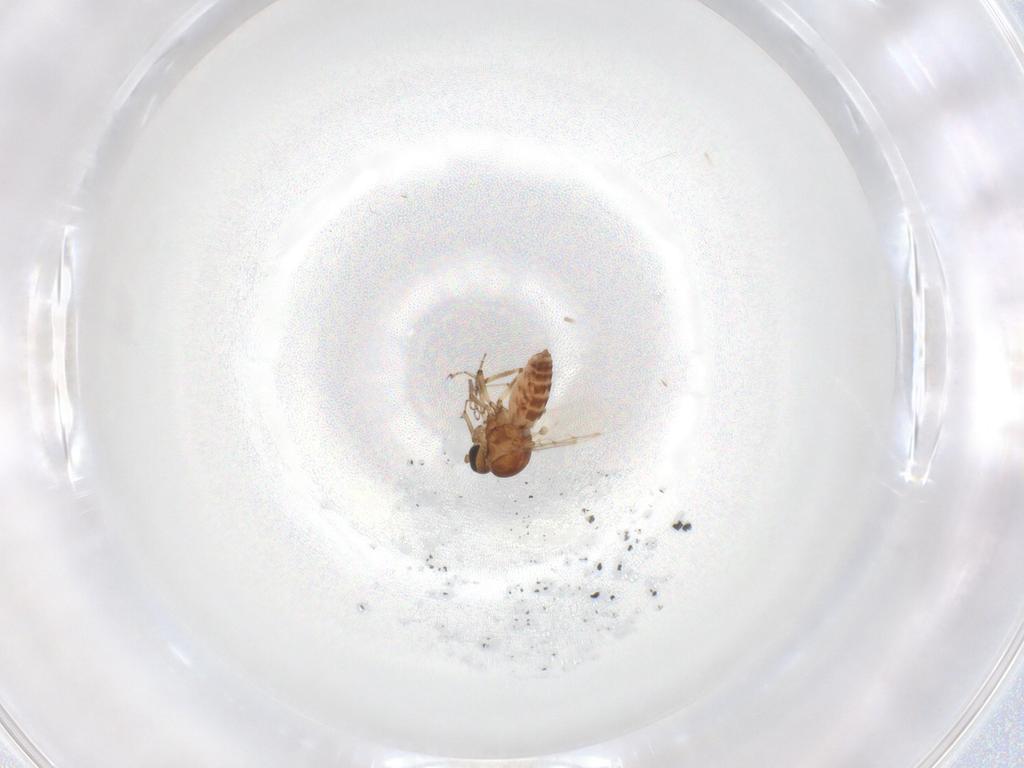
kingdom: Animalia
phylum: Arthropoda
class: Insecta
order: Diptera
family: Ceratopogonidae
